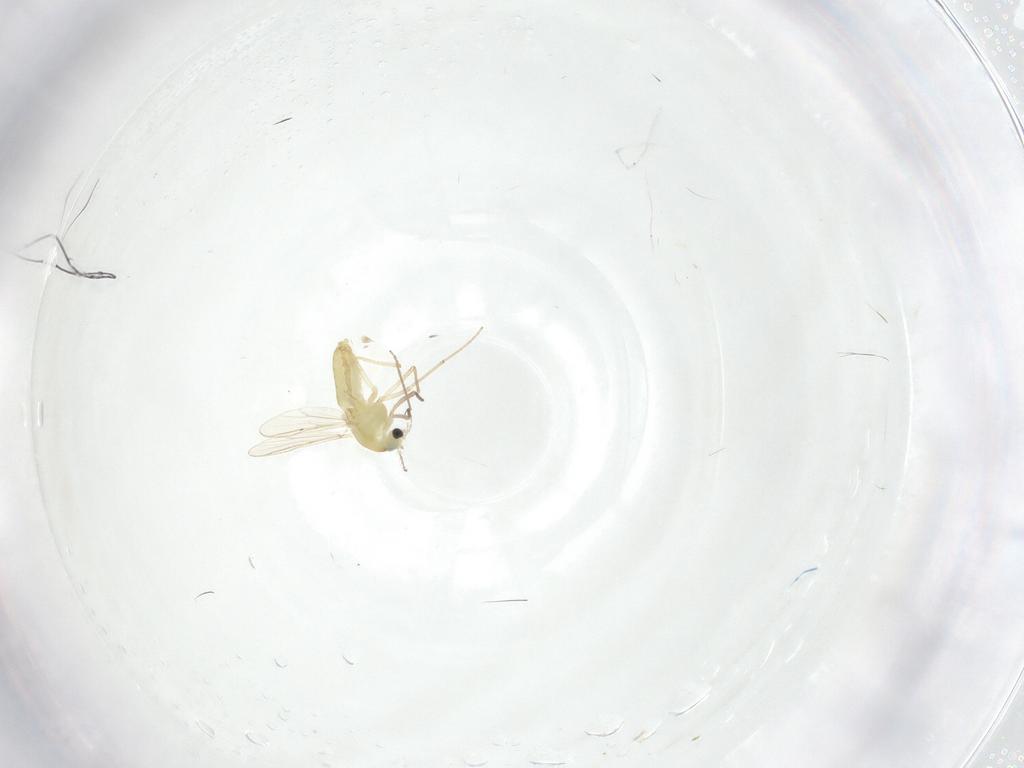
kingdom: Animalia
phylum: Arthropoda
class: Insecta
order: Diptera
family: Chironomidae
